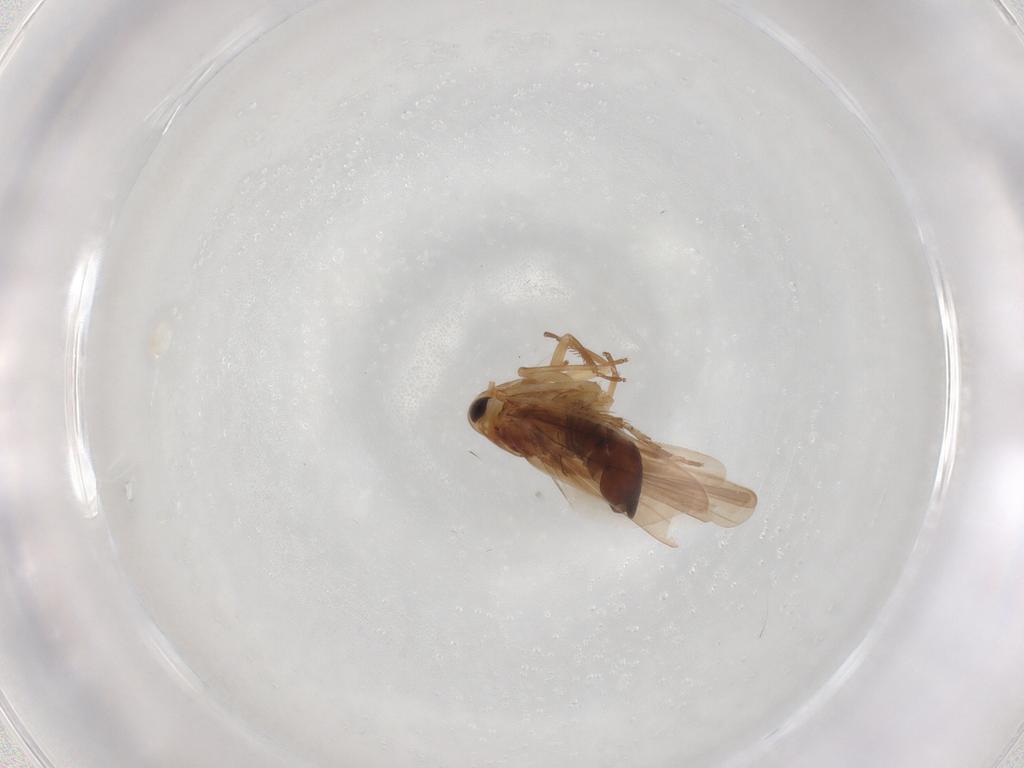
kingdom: Animalia
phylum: Arthropoda
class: Insecta
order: Hemiptera
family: Cicadellidae
